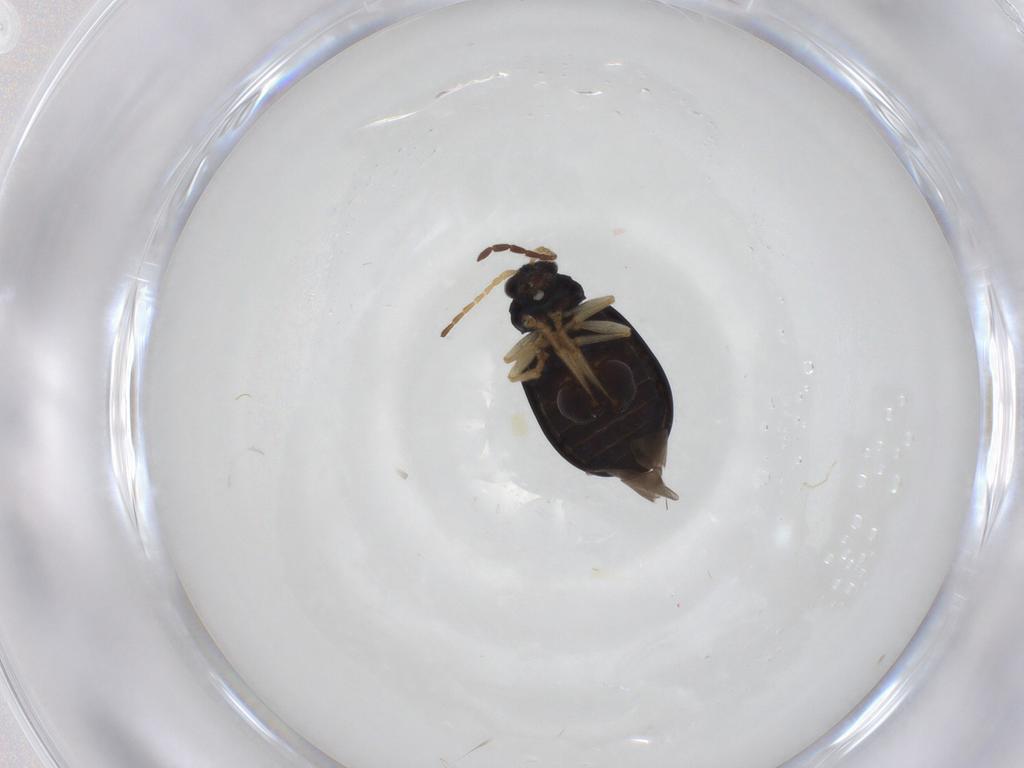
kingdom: Animalia
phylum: Arthropoda
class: Insecta
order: Coleoptera
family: Chrysomelidae
